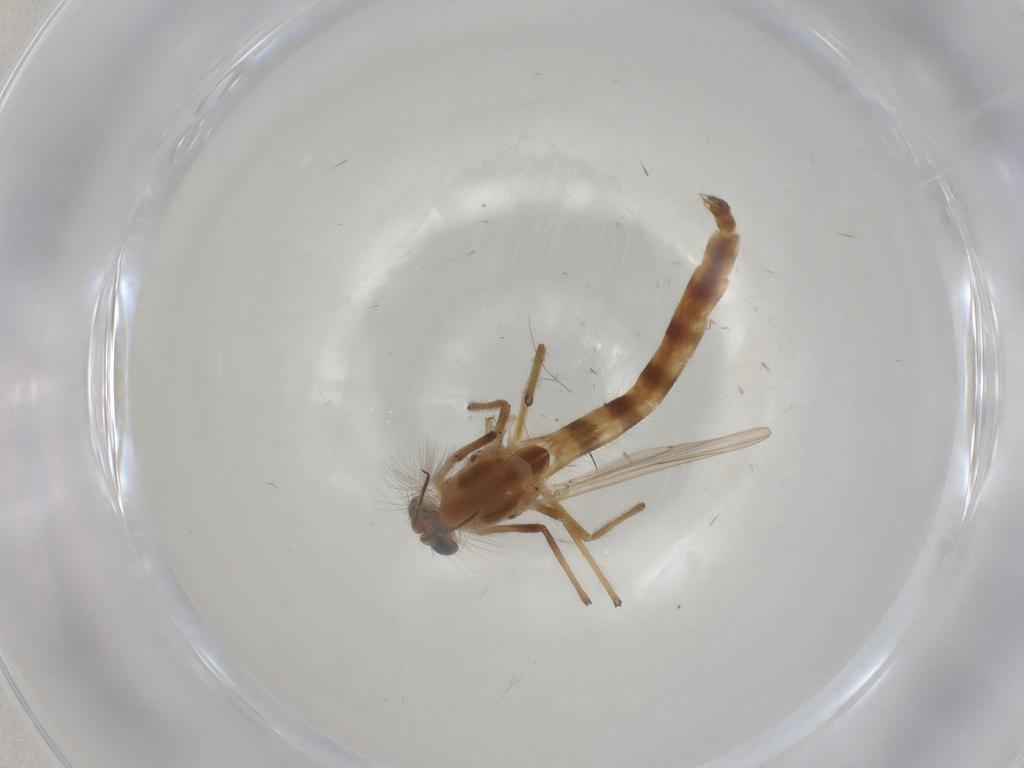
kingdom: Animalia
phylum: Arthropoda
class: Insecta
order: Diptera
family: Chironomidae
